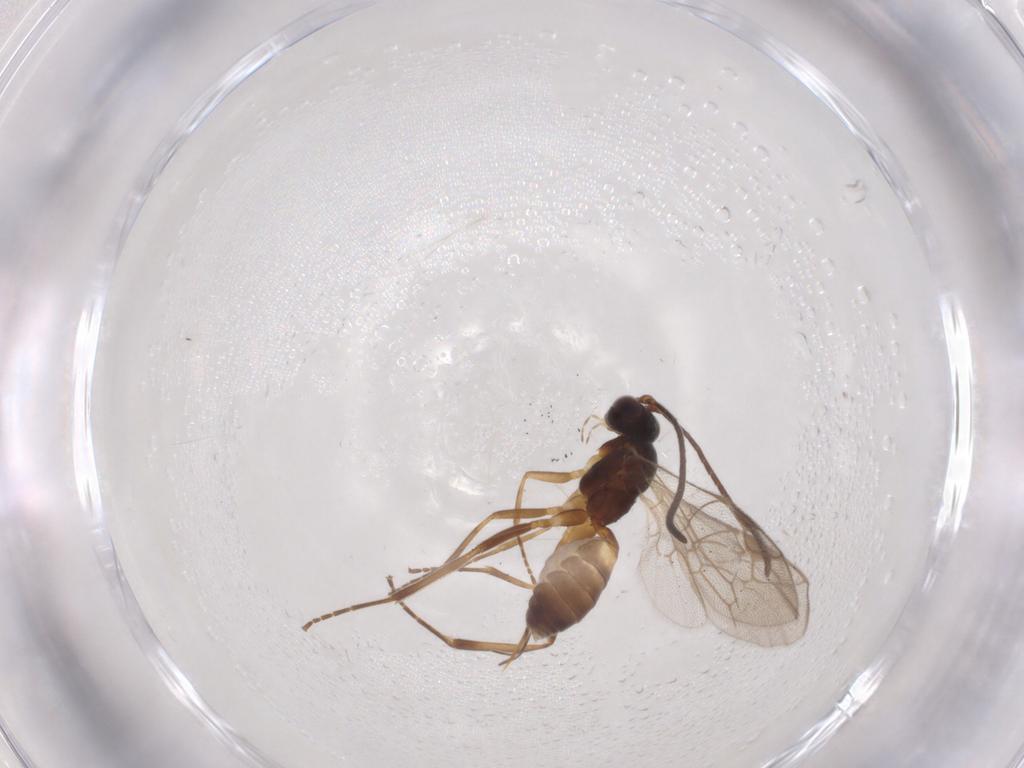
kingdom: Animalia
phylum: Arthropoda
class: Insecta
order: Hymenoptera
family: Ichneumonidae
